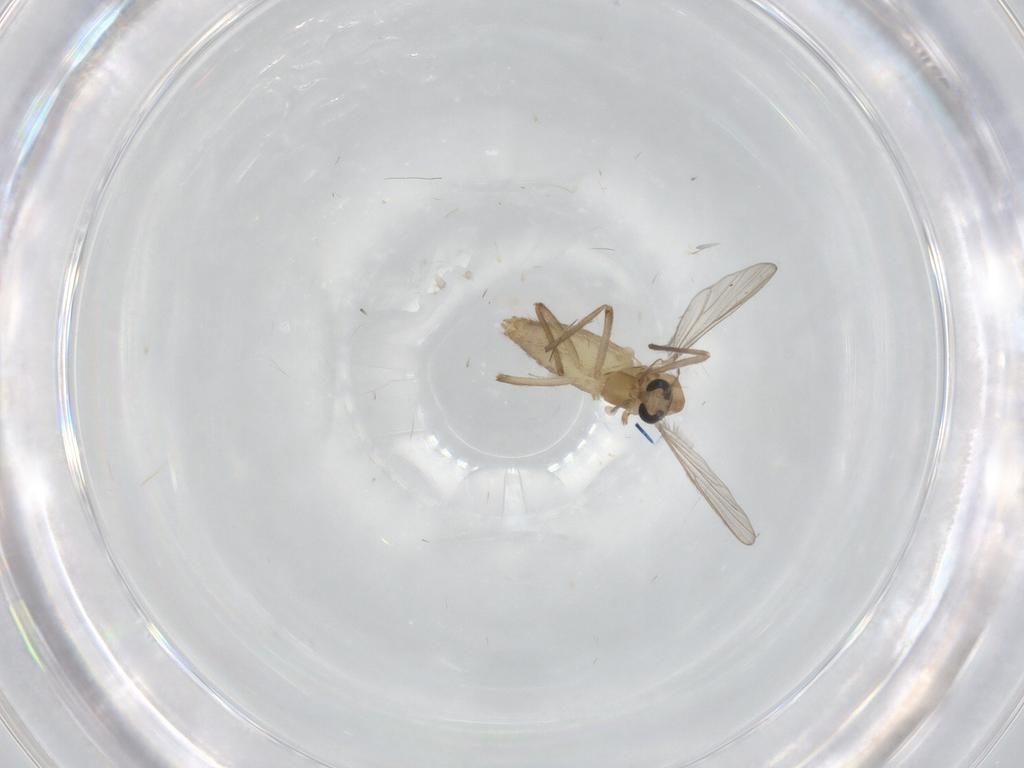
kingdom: Animalia
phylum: Arthropoda
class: Insecta
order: Diptera
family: Chironomidae
